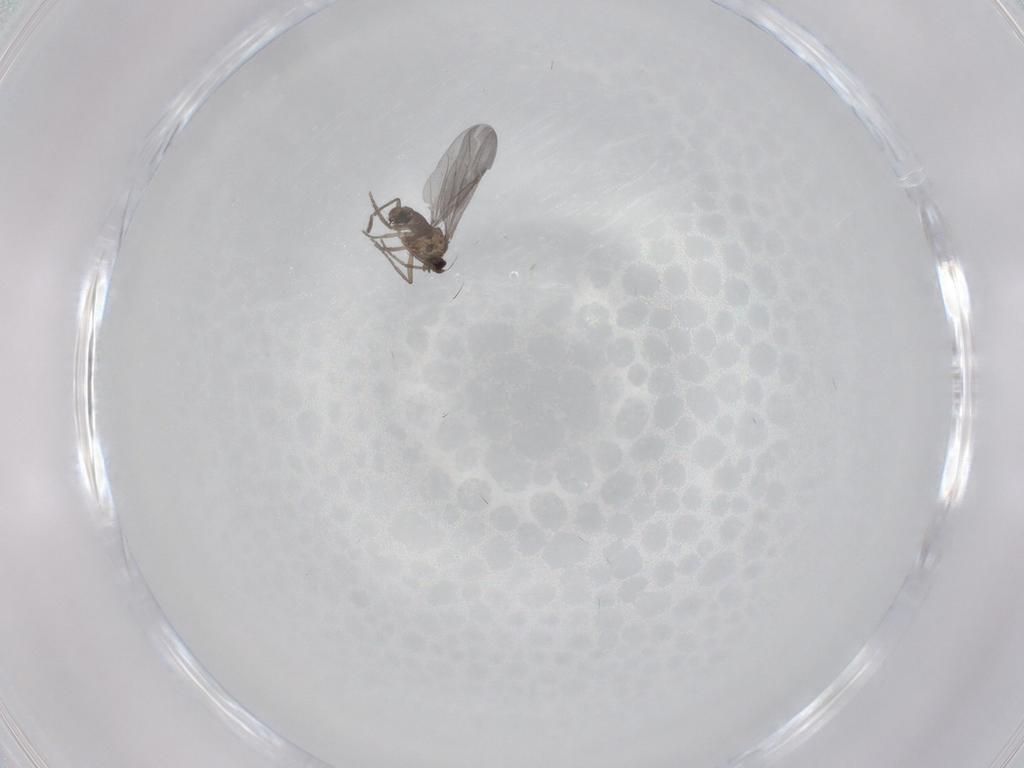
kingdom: Animalia
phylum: Arthropoda
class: Insecta
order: Diptera
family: Phoridae
